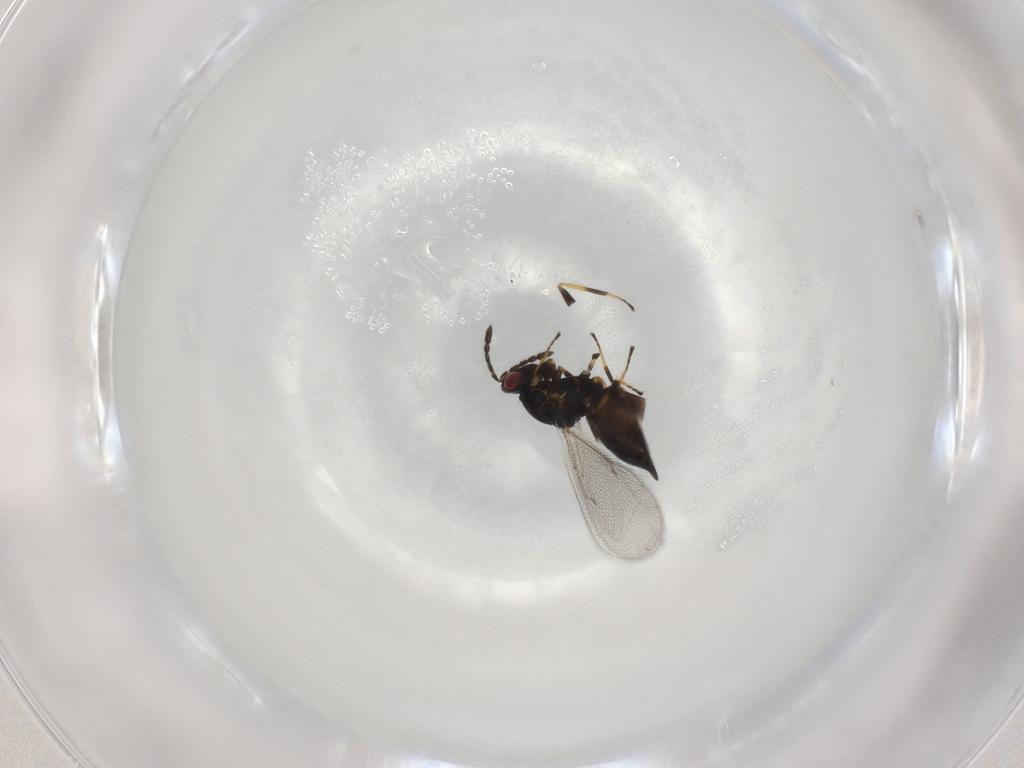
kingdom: Animalia
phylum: Arthropoda
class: Insecta
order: Hymenoptera
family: Eulophidae
